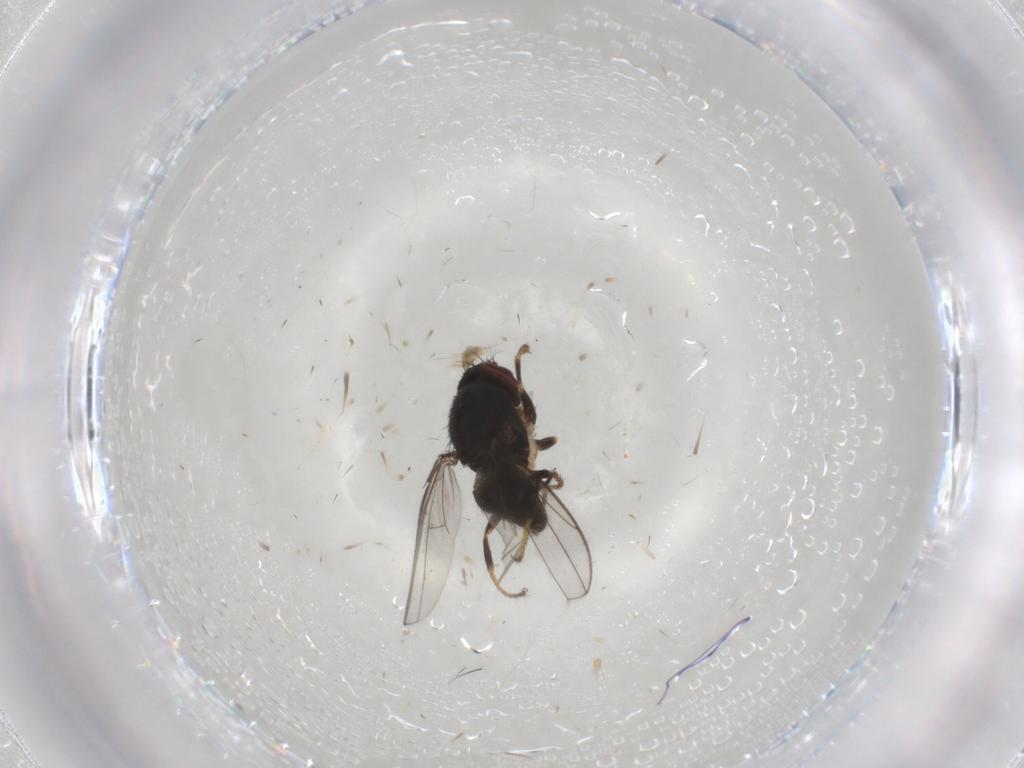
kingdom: Animalia
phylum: Arthropoda
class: Insecta
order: Diptera
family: Ephydridae
